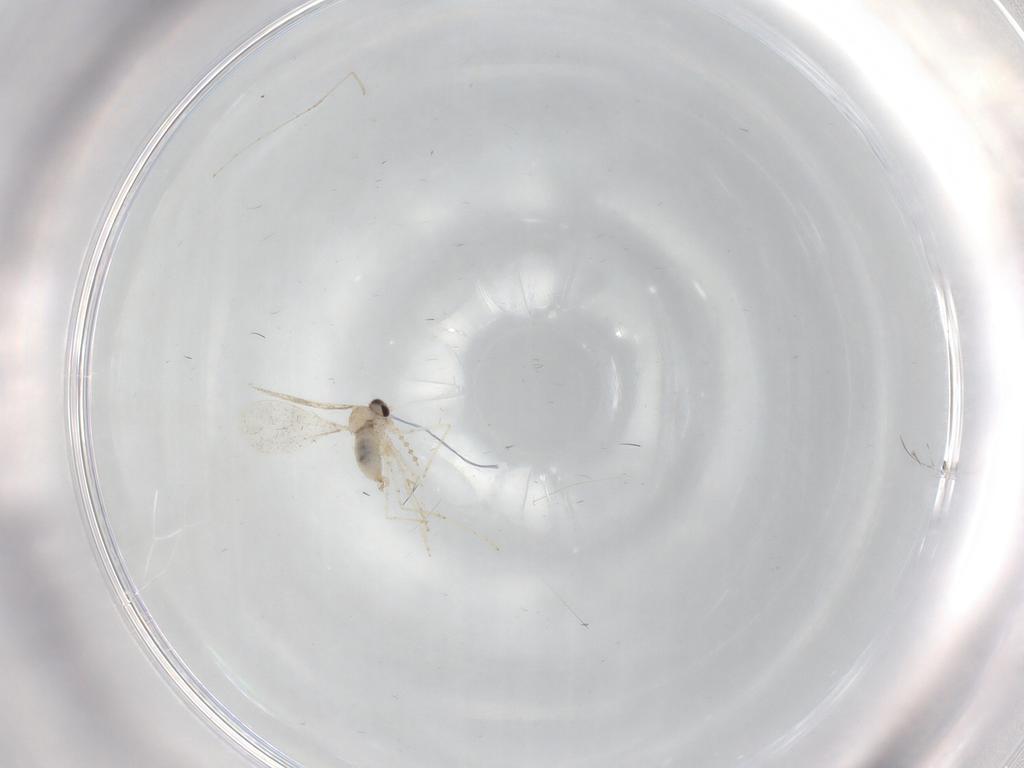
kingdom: Animalia
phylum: Arthropoda
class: Insecta
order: Diptera
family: Cecidomyiidae
